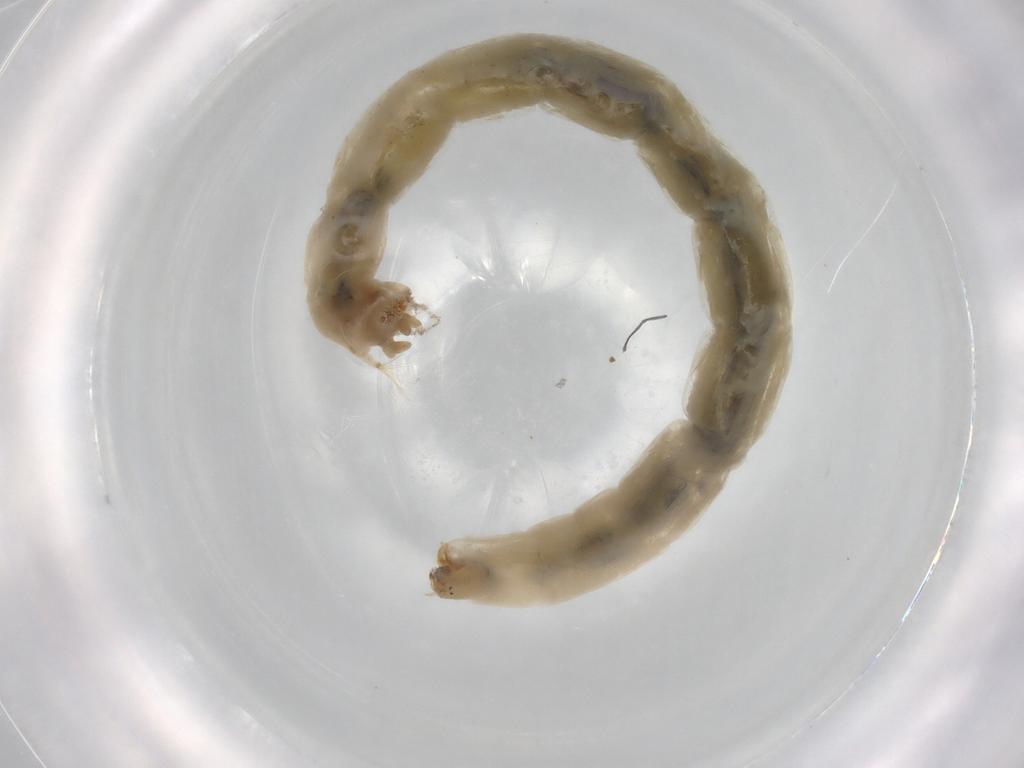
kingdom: Animalia
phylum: Arthropoda
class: Insecta
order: Diptera
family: Chironomidae
